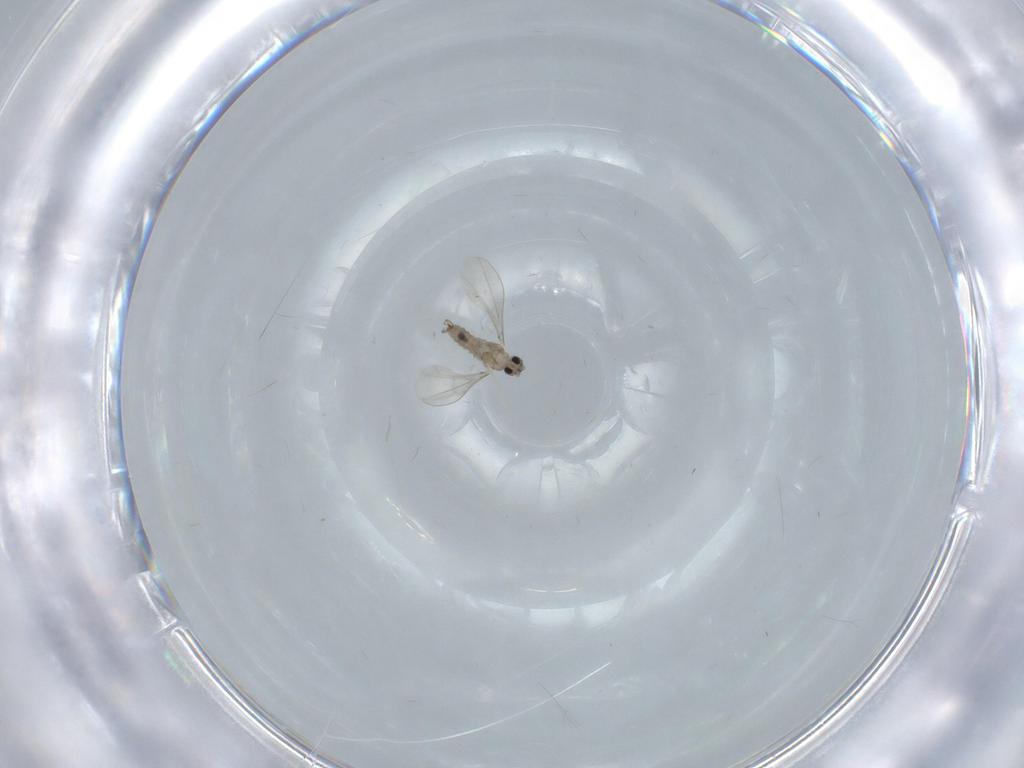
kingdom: Animalia
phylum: Arthropoda
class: Insecta
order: Diptera
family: Cecidomyiidae
